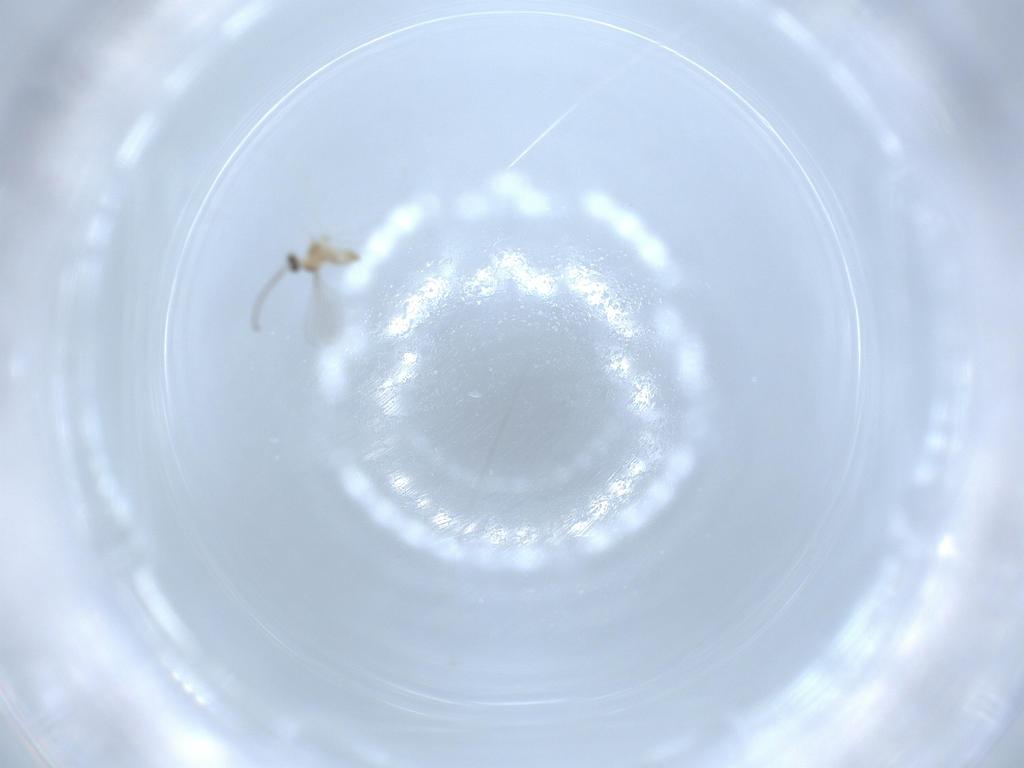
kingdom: Animalia
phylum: Arthropoda
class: Insecta
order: Diptera
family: Cecidomyiidae
